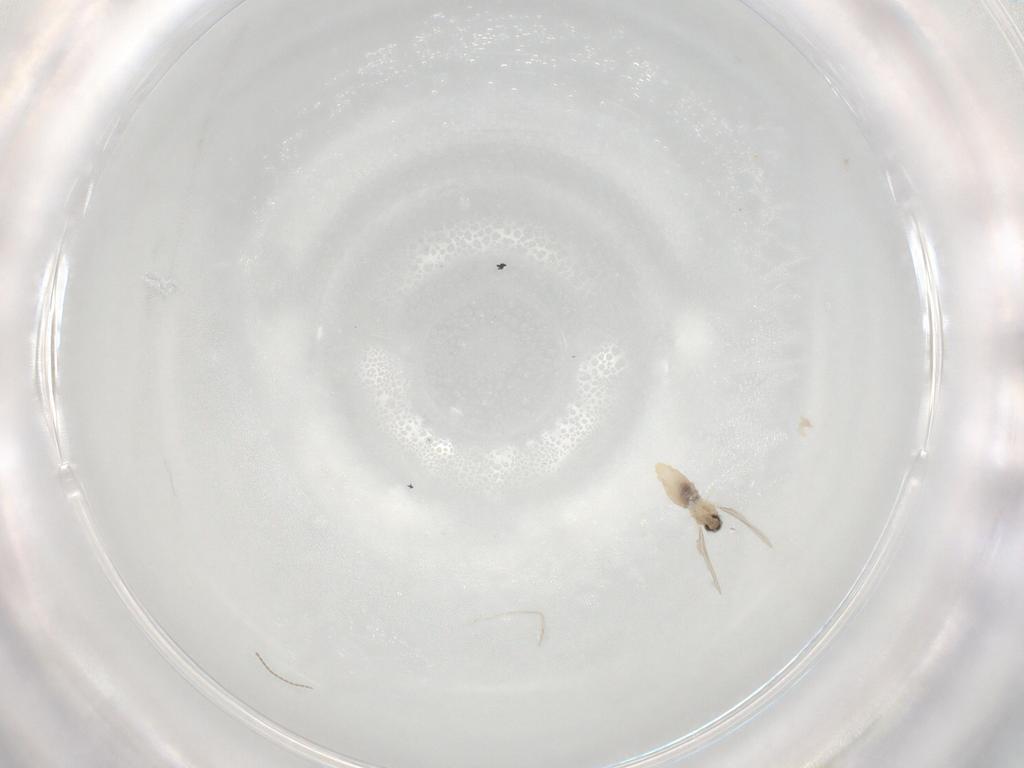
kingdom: Animalia
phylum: Arthropoda
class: Insecta
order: Diptera
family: Cecidomyiidae
